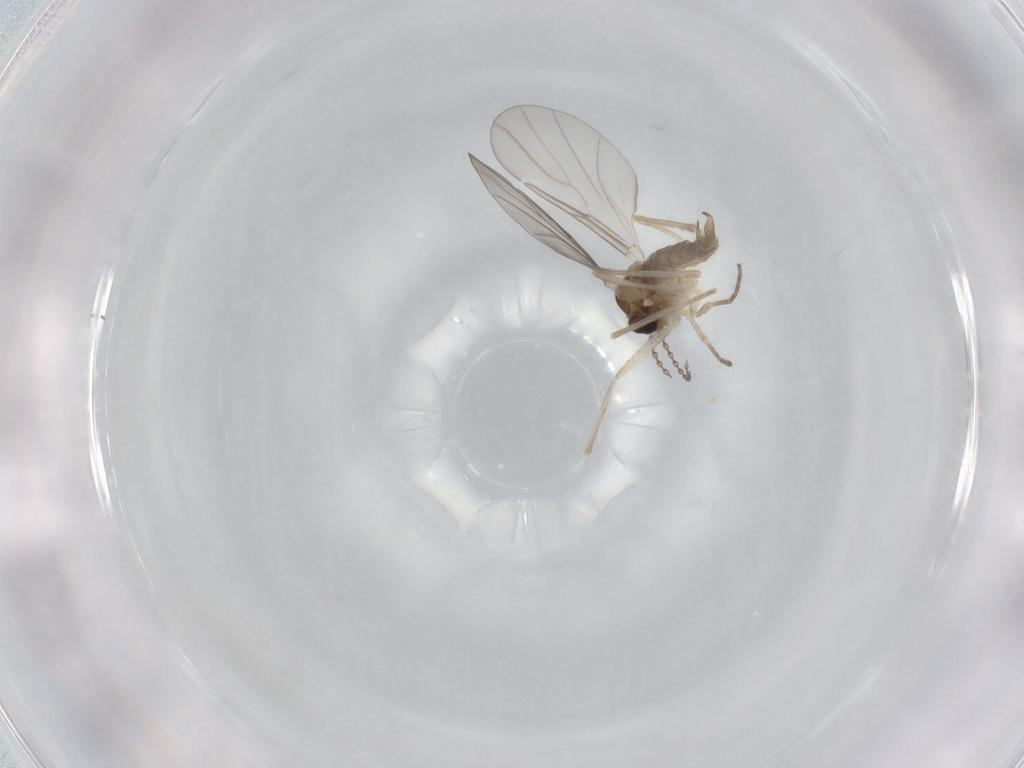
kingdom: Animalia
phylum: Arthropoda
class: Insecta
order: Diptera
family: Cecidomyiidae
